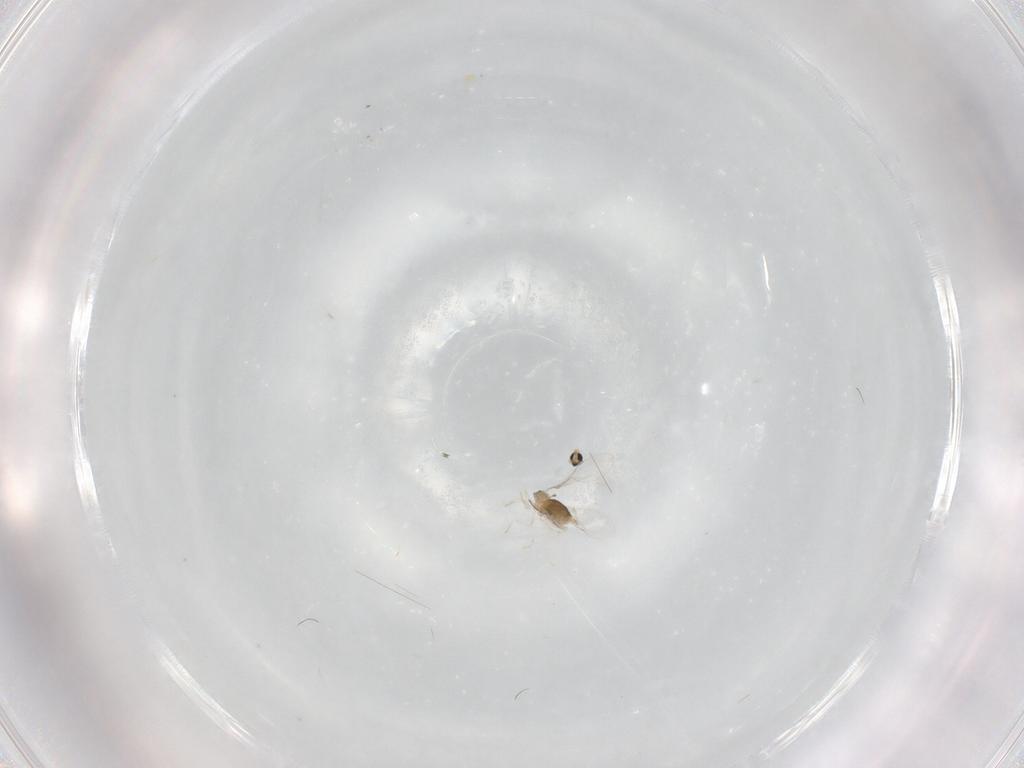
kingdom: Animalia
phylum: Arthropoda
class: Insecta
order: Diptera
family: Cecidomyiidae
